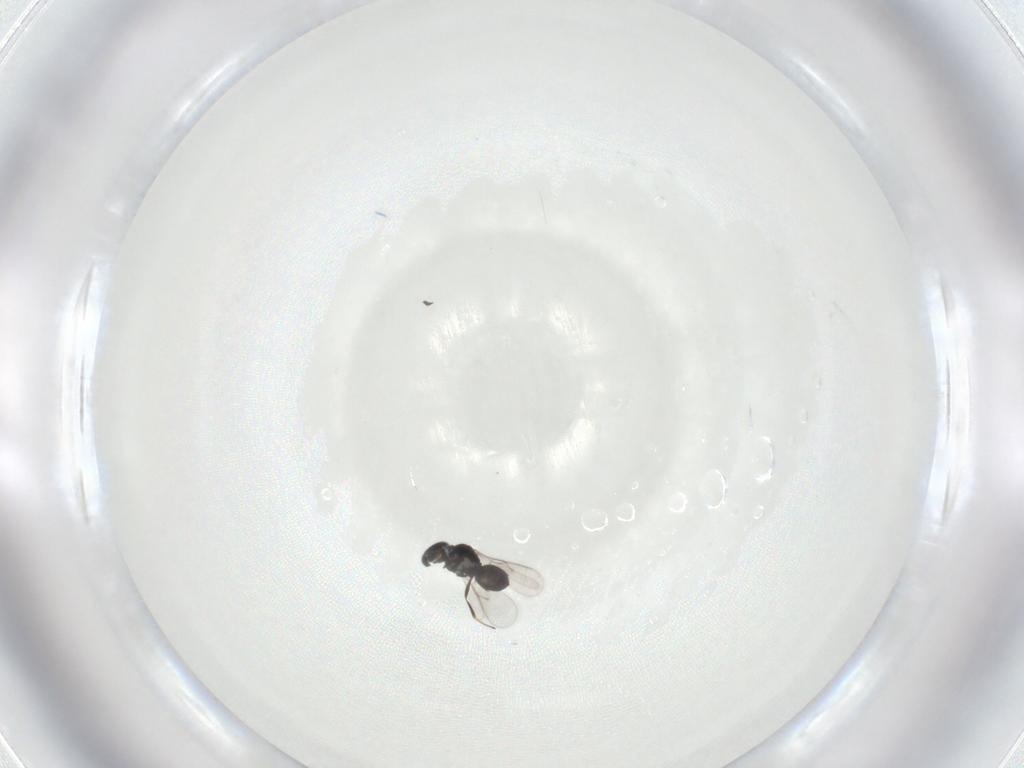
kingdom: Animalia
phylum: Arthropoda
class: Insecta
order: Hymenoptera
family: Scelionidae
